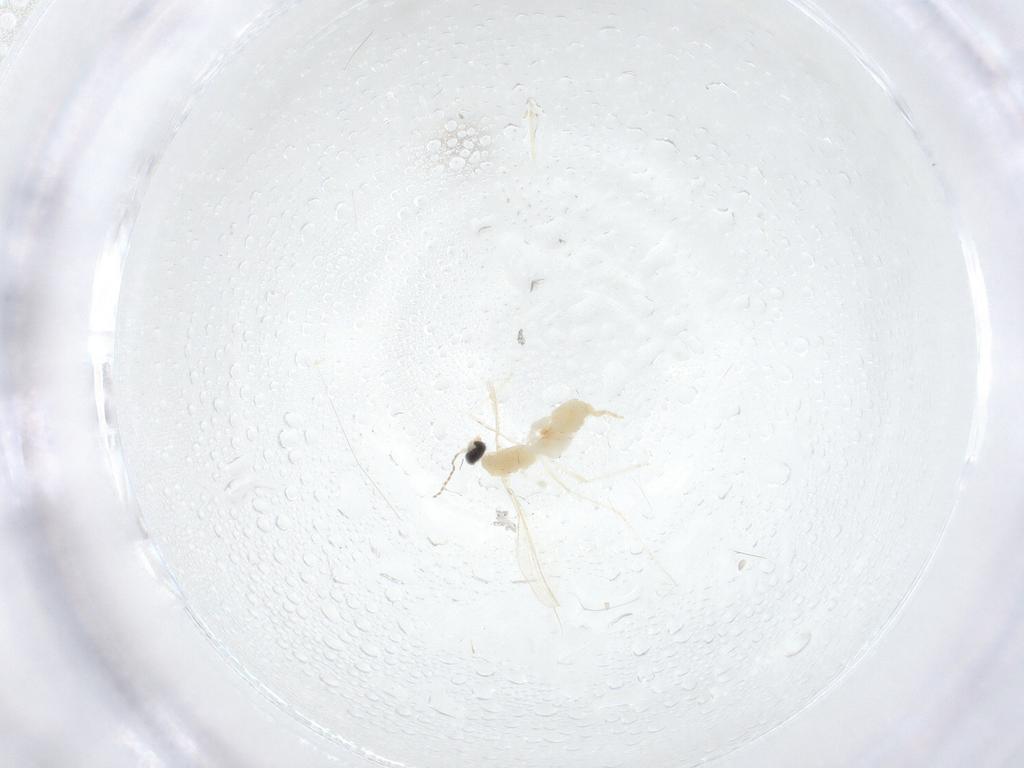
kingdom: Animalia
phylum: Arthropoda
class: Insecta
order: Diptera
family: Cecidomyiidae
